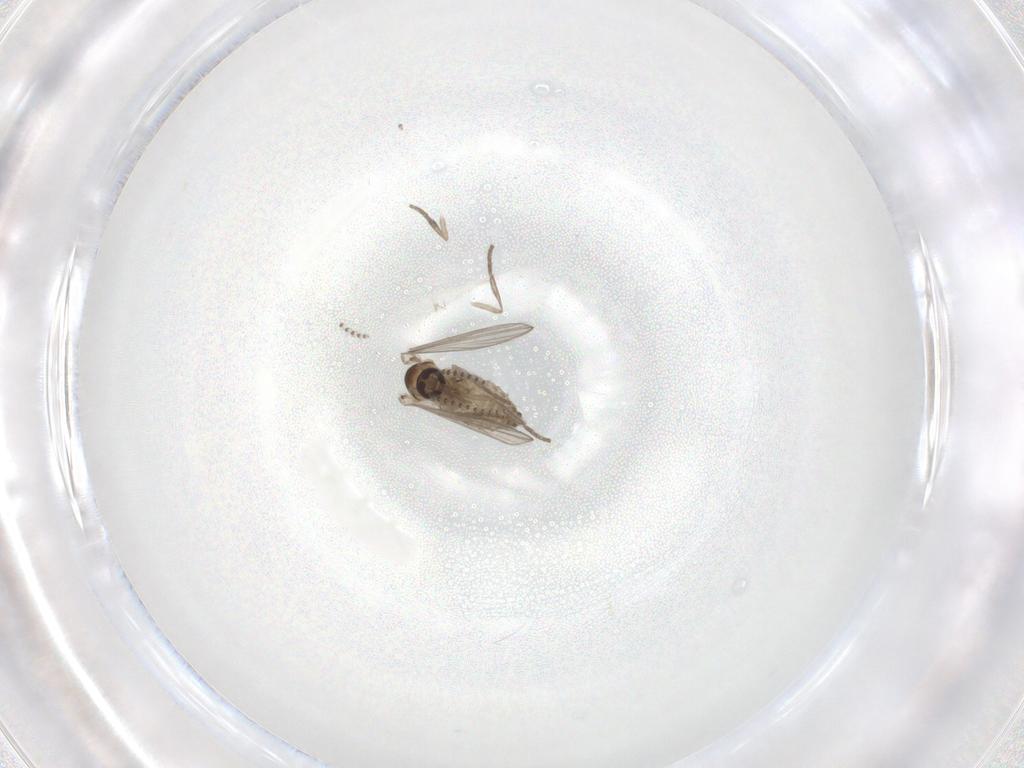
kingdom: Animalia
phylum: Arthropoda
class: Insecta
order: Diptera
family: Psychodidae
